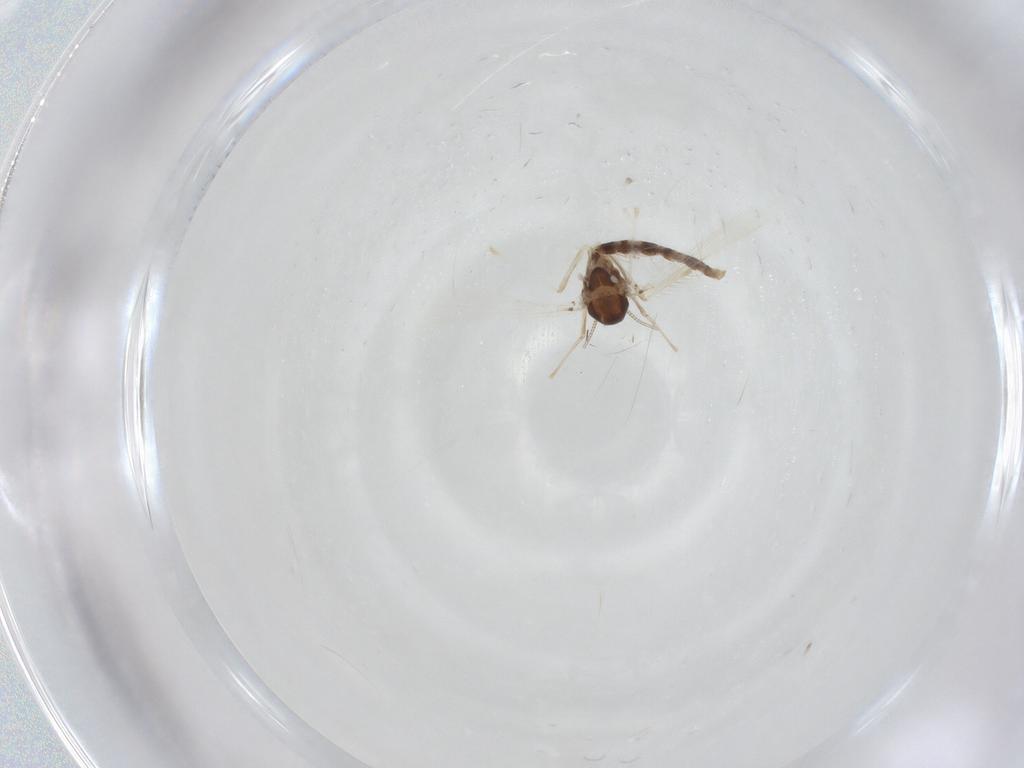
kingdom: Animalia
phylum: Arthropoda
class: Insecta
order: Diptera
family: Chironomidae
